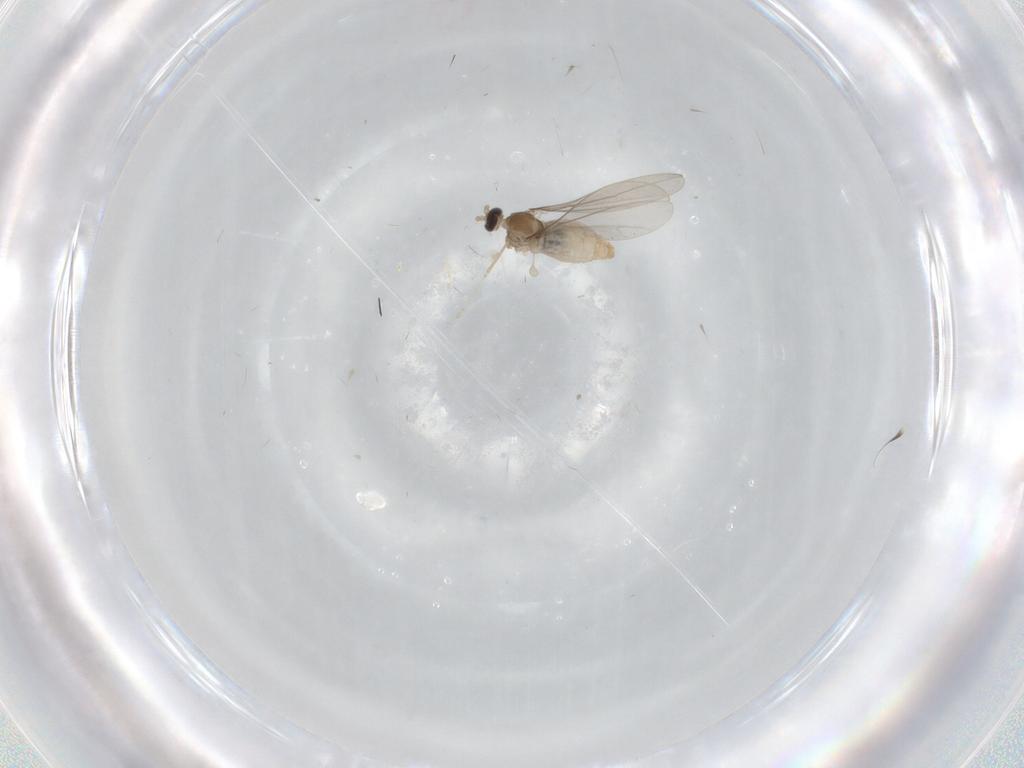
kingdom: Animalia
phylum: Arthropoda
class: Insecta
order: Diptera
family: Cecidomyiidae
